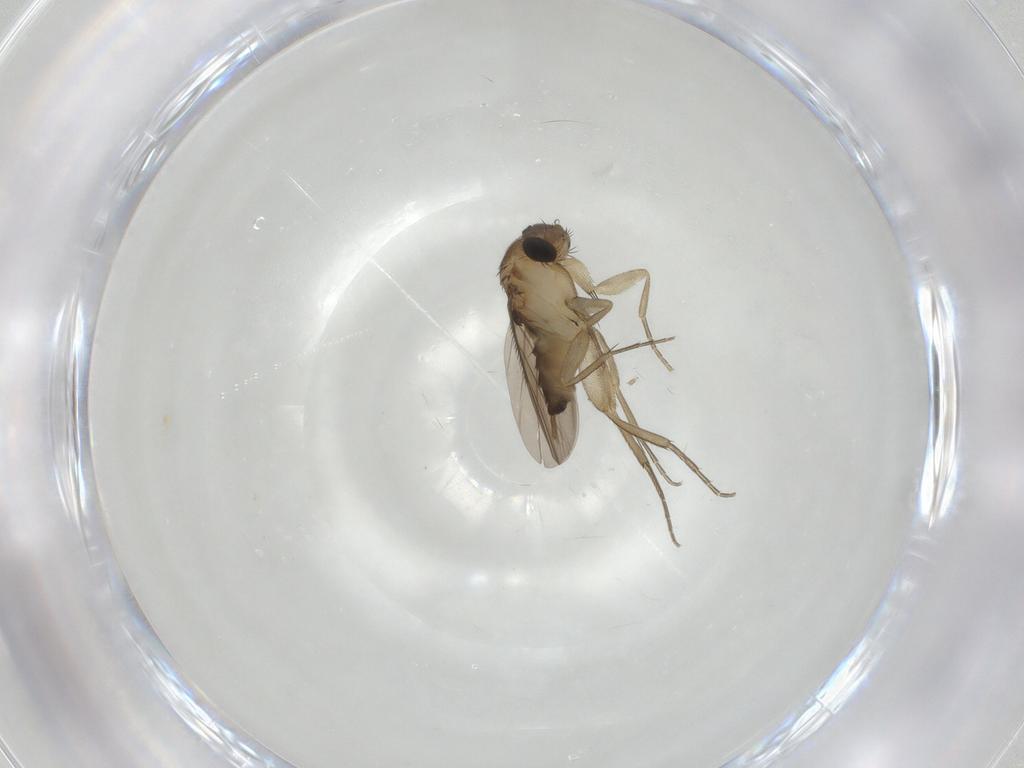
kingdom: Animalia
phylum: Arthropoda
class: Insecta
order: Diptera
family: Phoridae
